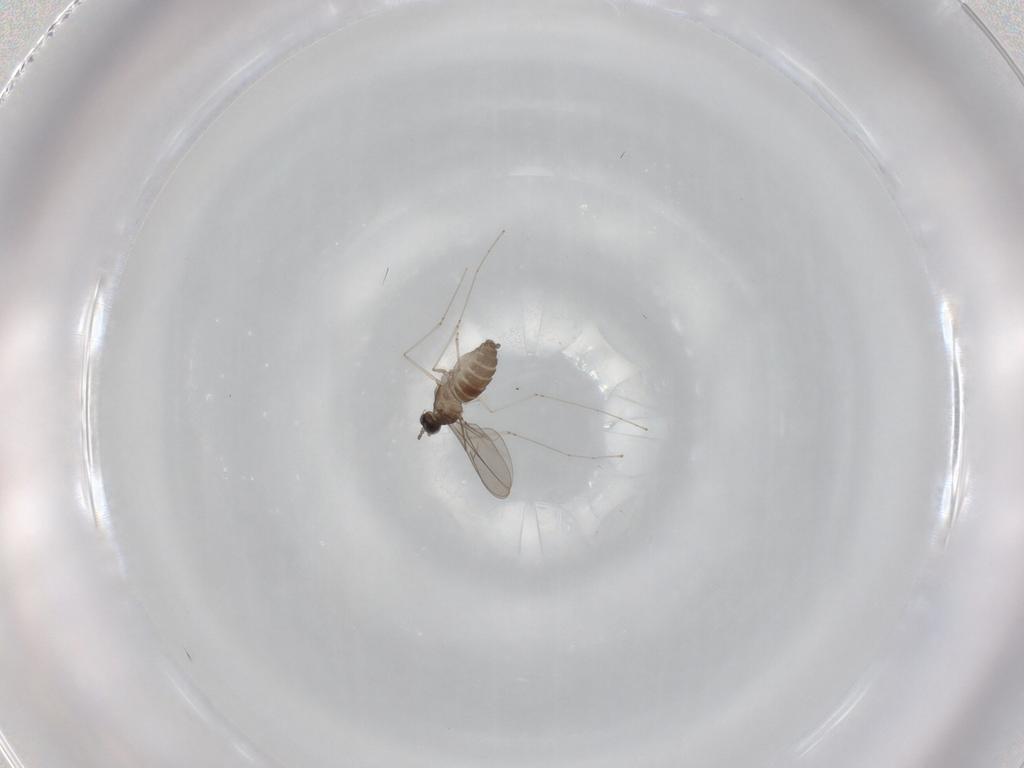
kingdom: Animalia
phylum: Arthropoda
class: Insecta
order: Diptera
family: Cecidomyiidae
